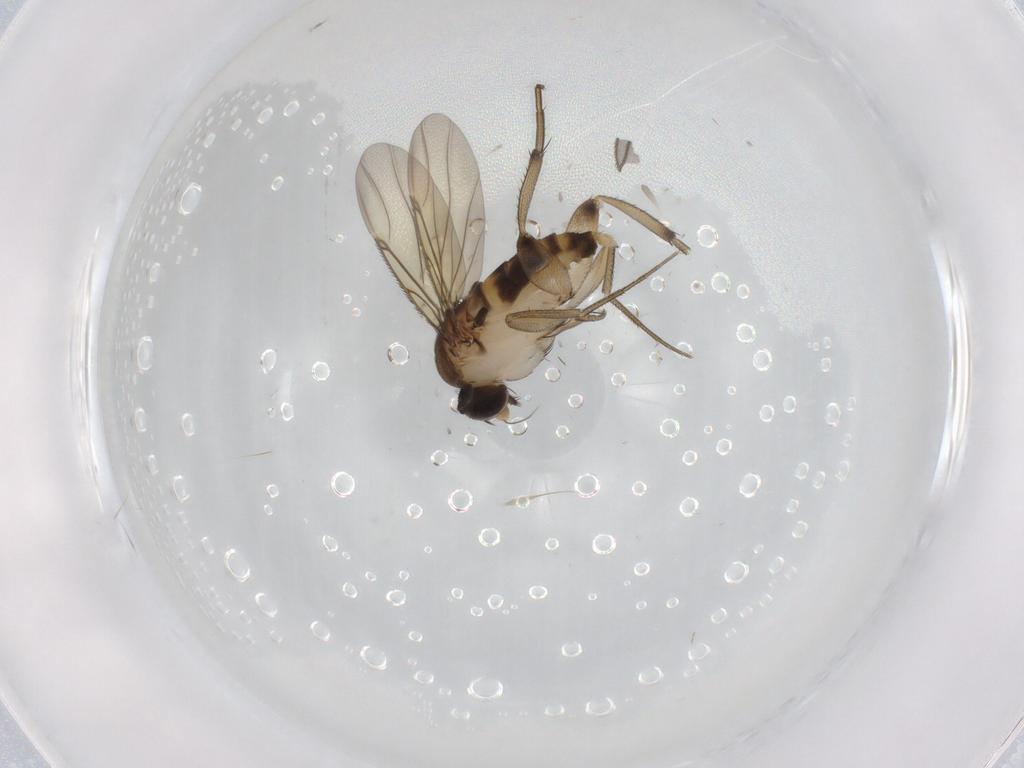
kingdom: Animalia
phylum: Arthropoda
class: Insecta
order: Diptera
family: Phoridae
